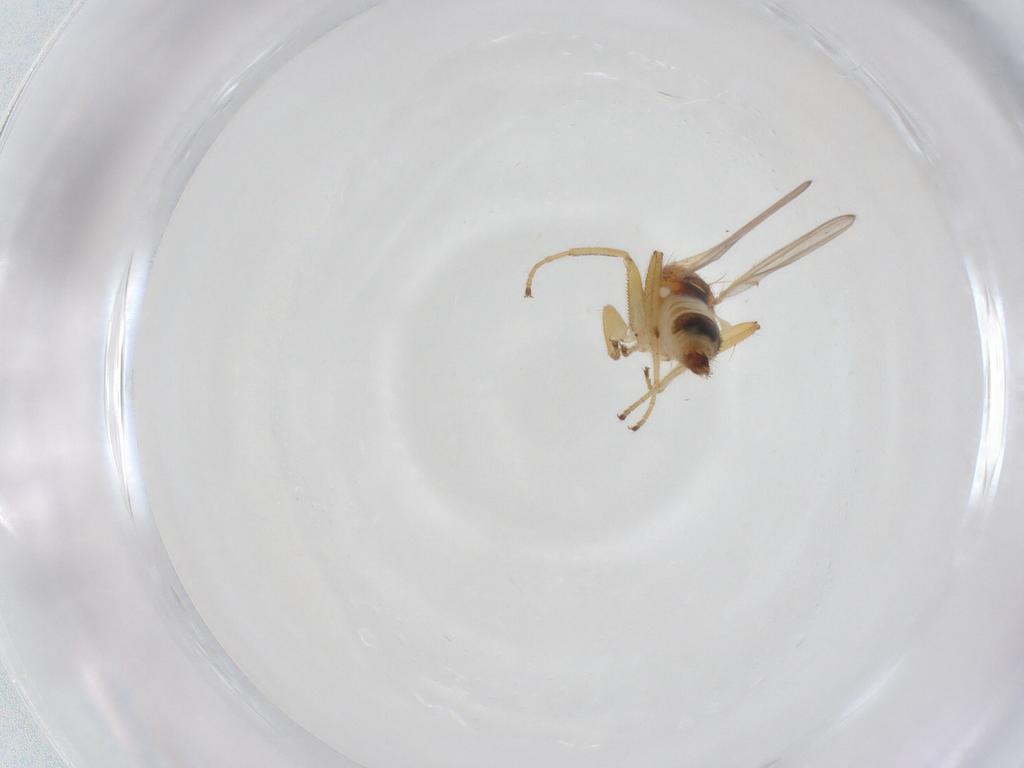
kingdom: Animalia
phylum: Arthropoda
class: Insecta
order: Diptera
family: Hybotidae
